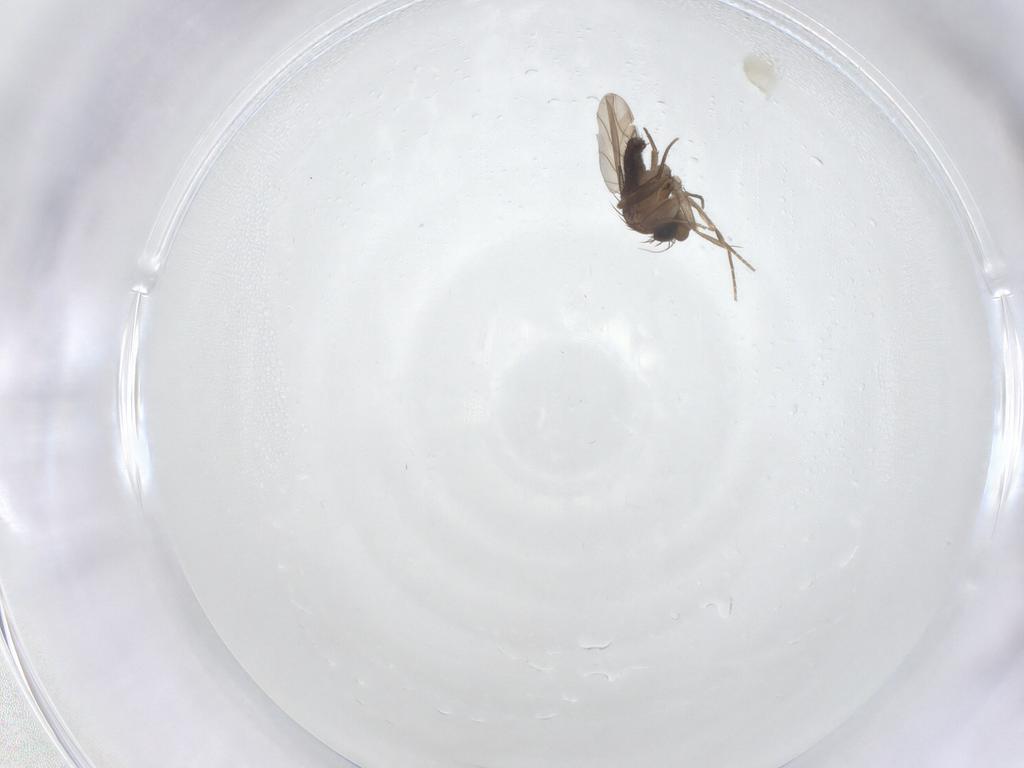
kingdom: Animalia
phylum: Arthropoda
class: Insecta
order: Diptera
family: Phoridae
